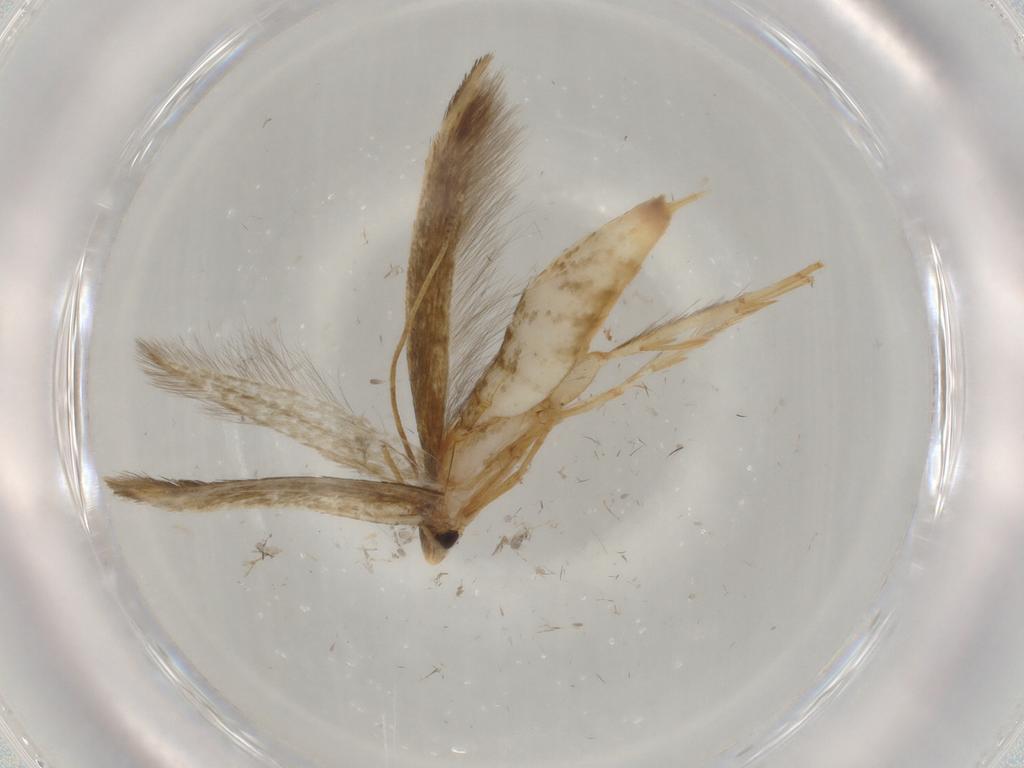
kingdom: Animalia
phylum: Arthropoda
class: Insecta
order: Lepidoptera
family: Tineidae
